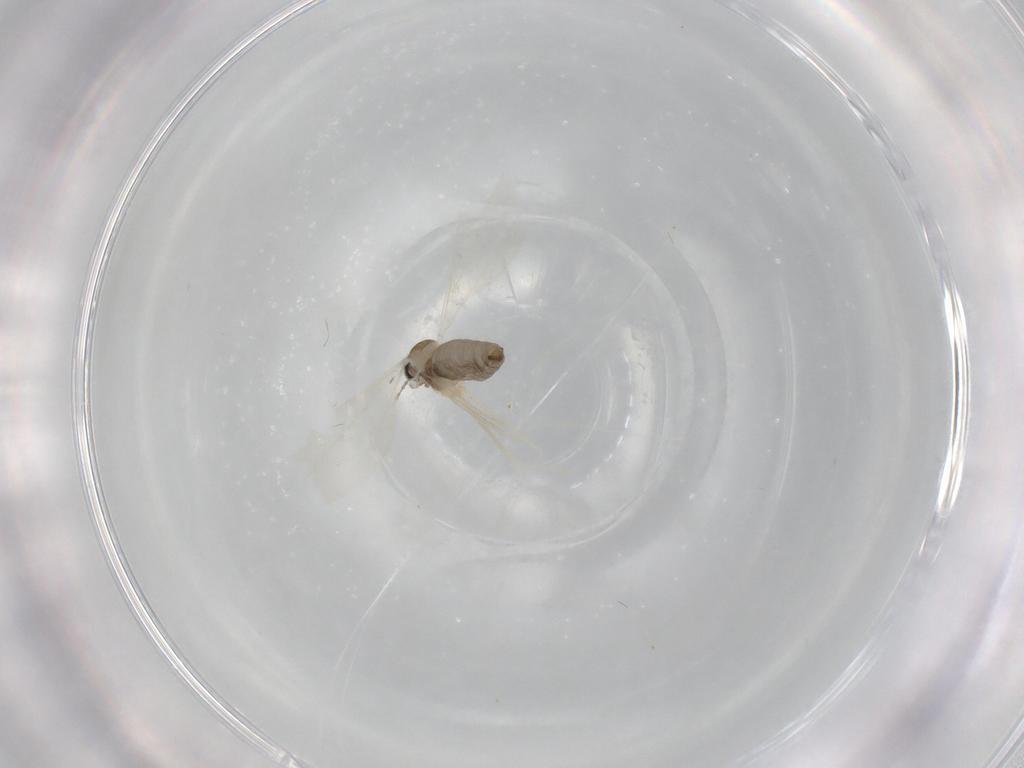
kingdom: Animalia
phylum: Arthropoda
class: Insecta
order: Diptera
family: Cecidomyiidae
